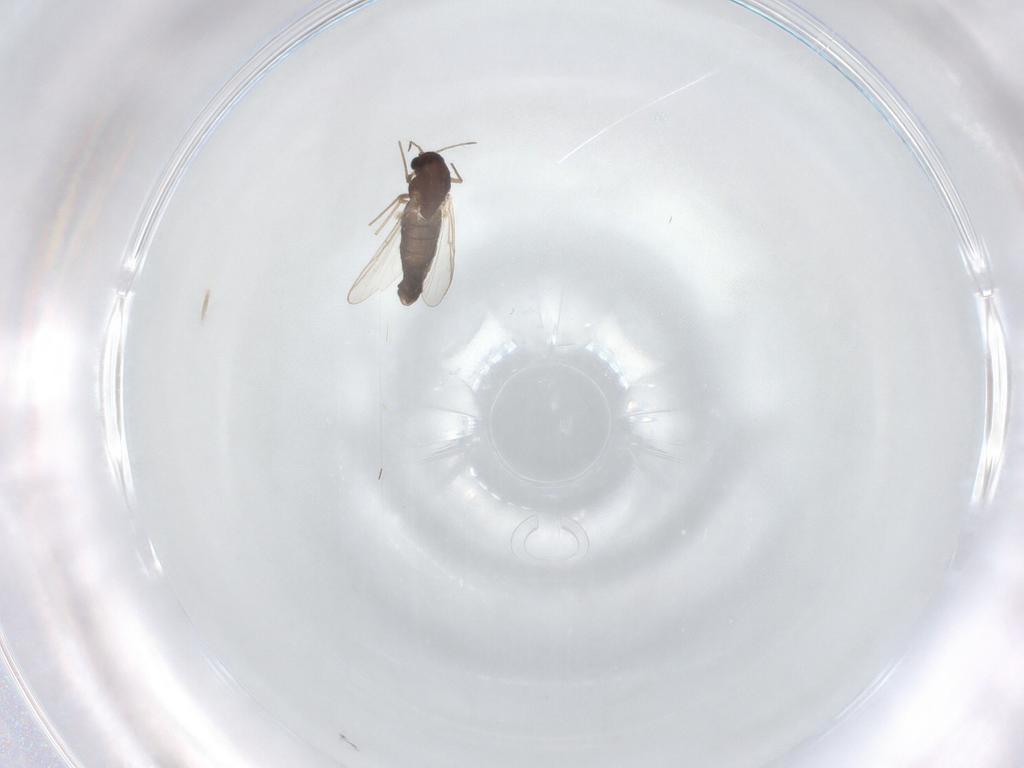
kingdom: Animalia
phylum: Arthropoda
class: Insecta
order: Diptera
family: Chironomidae
